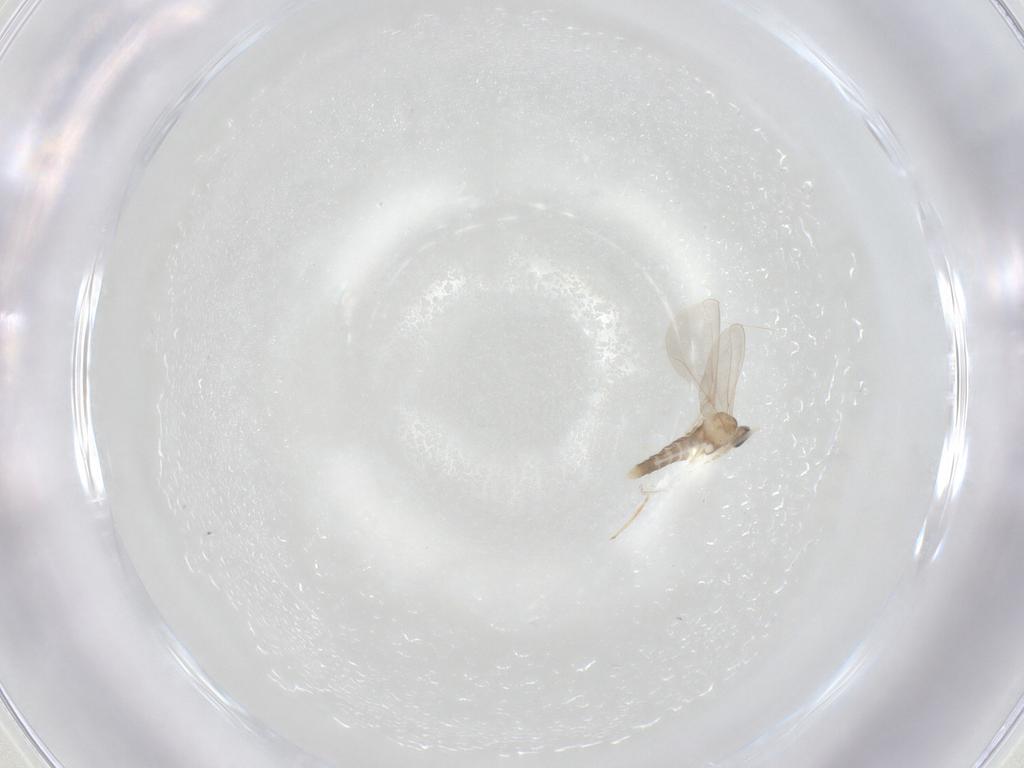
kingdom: Animalia
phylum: Arthropoda
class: Insecta
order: Diptera
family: Cecidomyiidae
